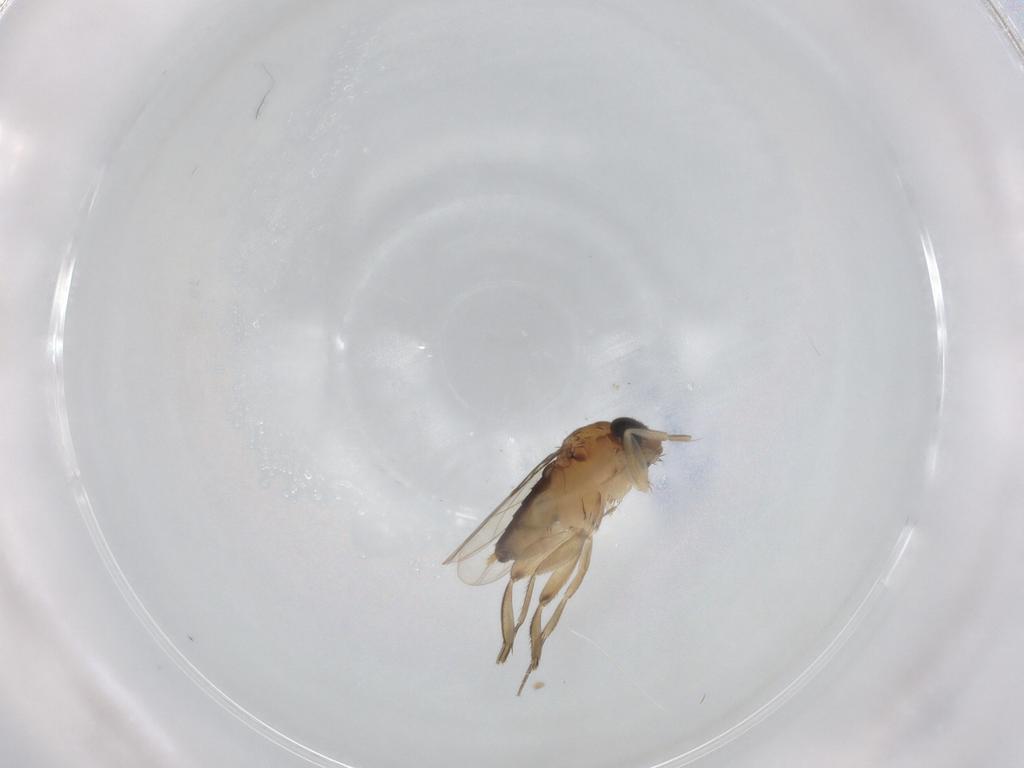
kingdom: Animalia
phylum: Arthropoda
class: Insecta
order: Diptera
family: Phoridae
